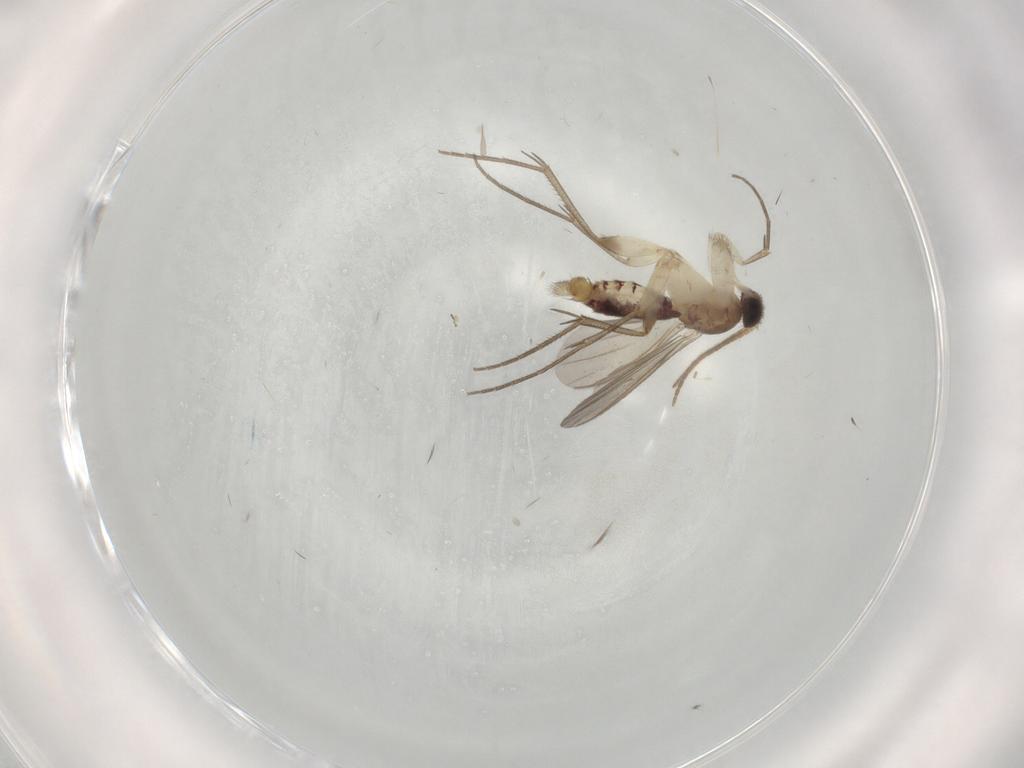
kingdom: Animalia
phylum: Arthropoda
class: Insecta
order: Diptera
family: Mycetophilidae
